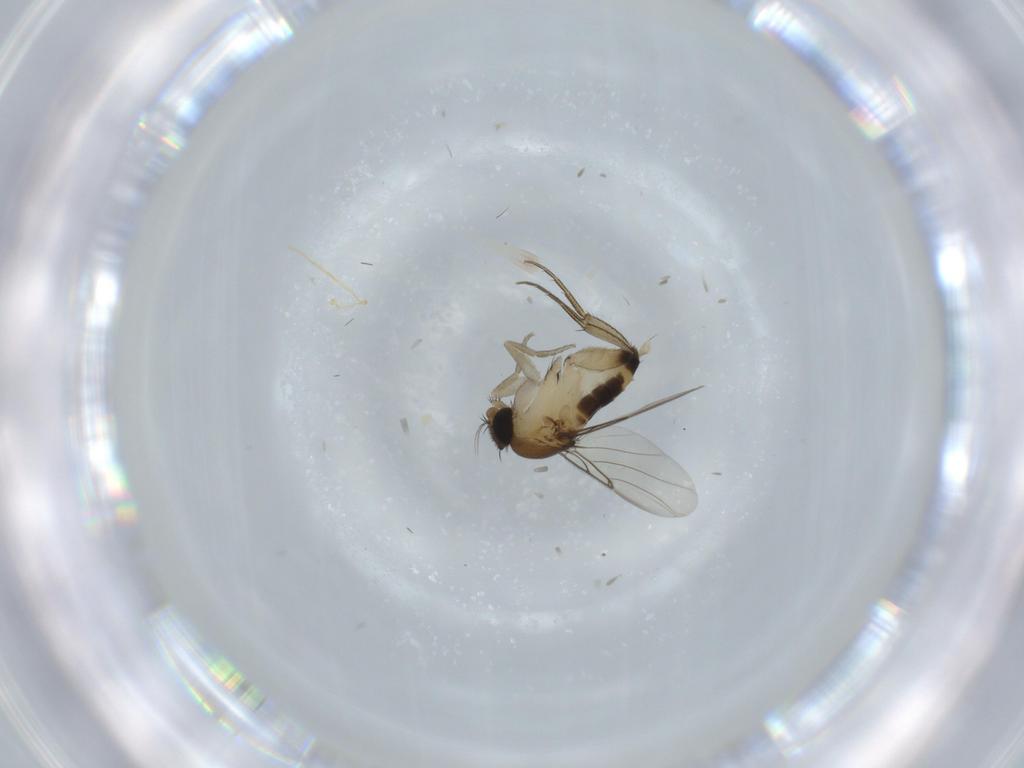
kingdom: Animalia
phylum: Arthropoda
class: Insecta
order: Diptera
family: Phoridae
